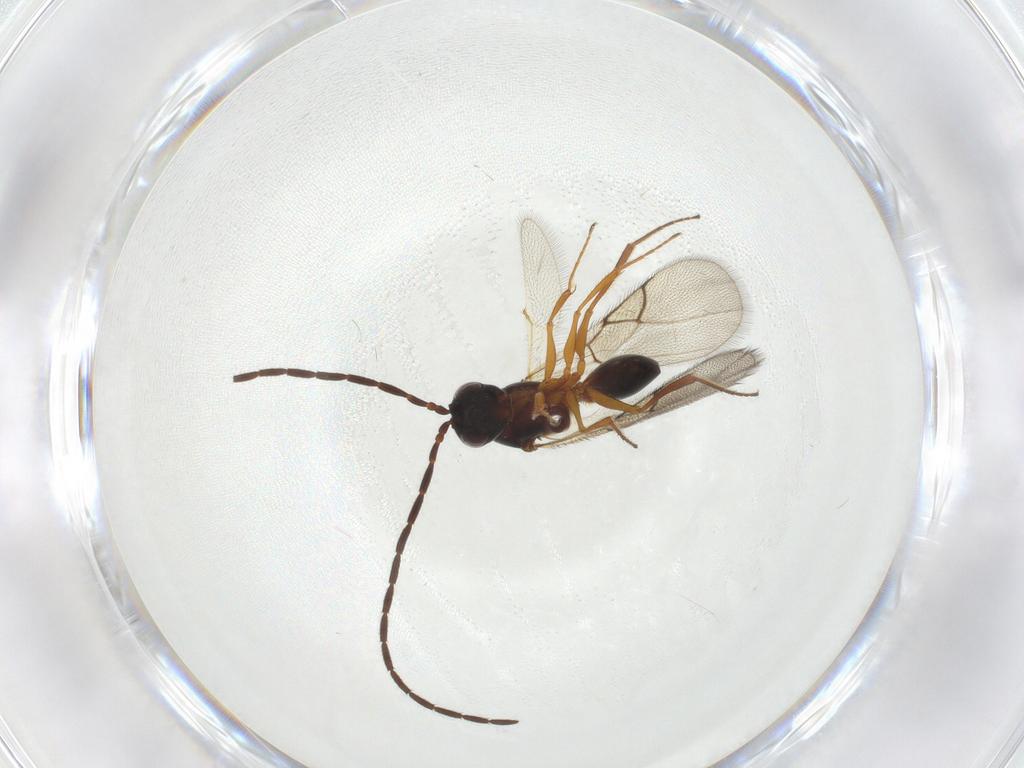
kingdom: Animalia
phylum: Arthropoda
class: Insecta
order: Hymenoptera
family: Figitidae
